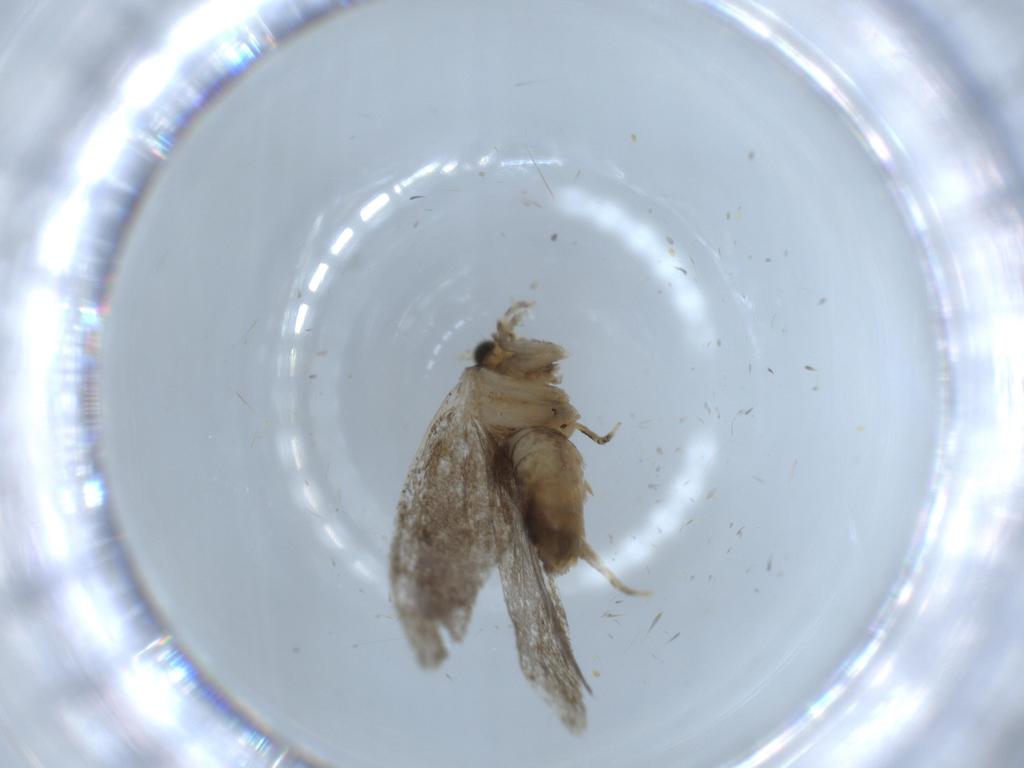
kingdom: Animalia
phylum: Arthropoda
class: Insecta
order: Lepidoptera
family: Tineidae
